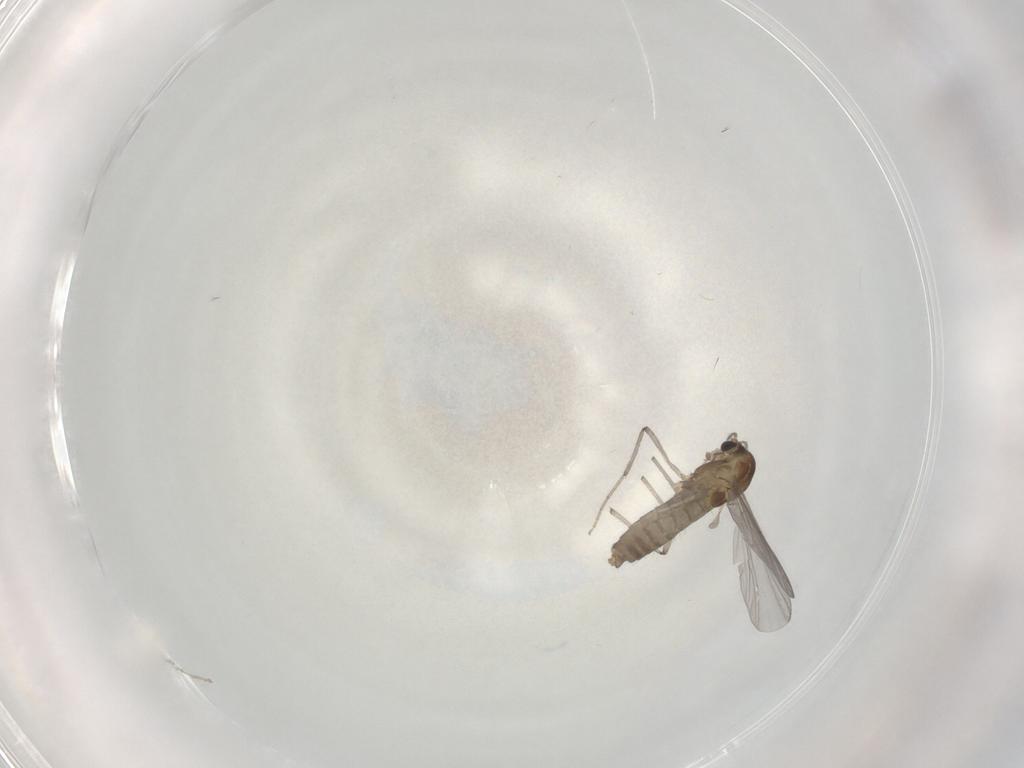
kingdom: Animalia
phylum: Arthropoda
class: Insecta
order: Diptera
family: Chironomidae
